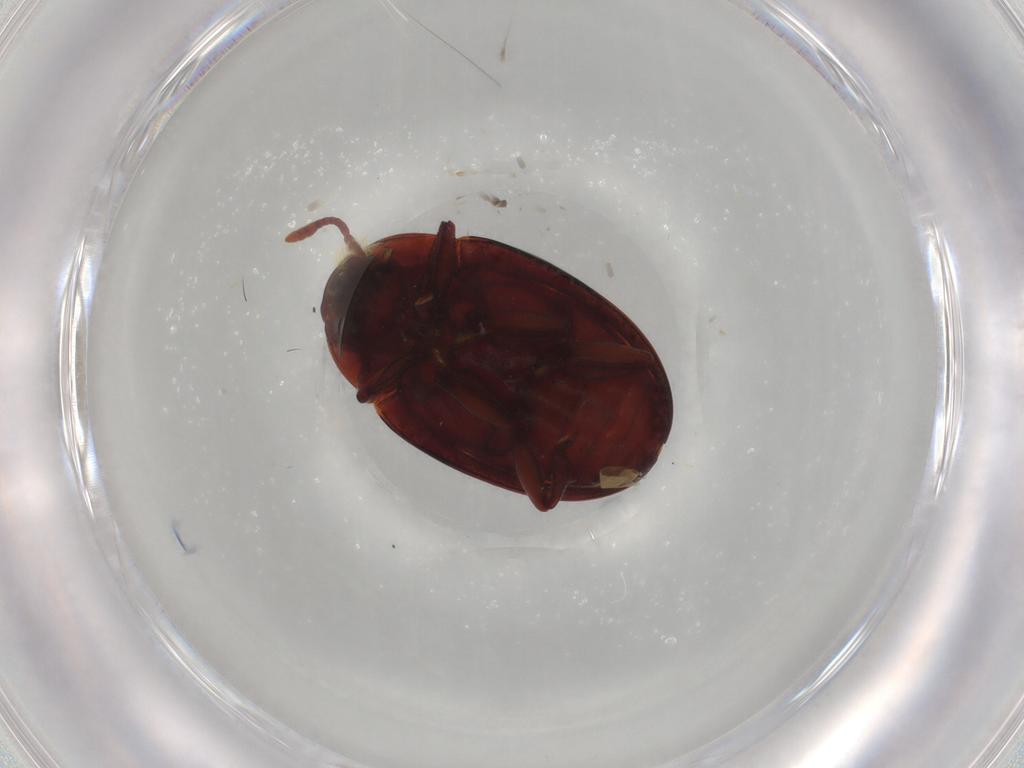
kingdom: Animalia
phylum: Arthropoda
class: Insecta
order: Coleoptera
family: Zopheridae
